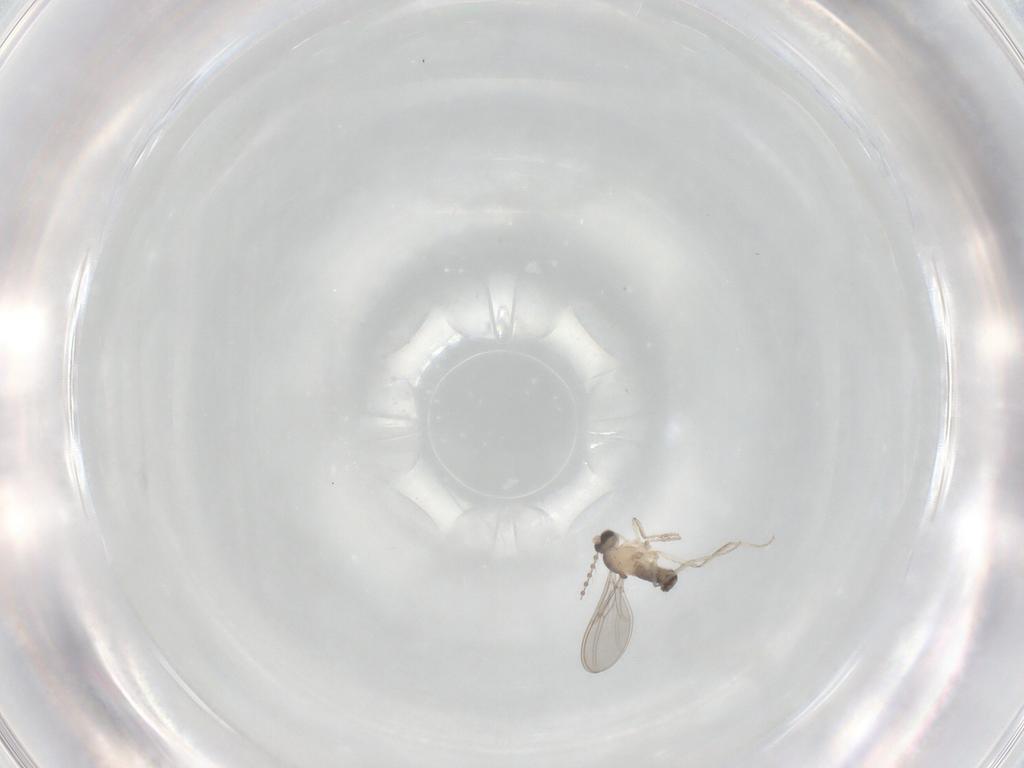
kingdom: Animalia
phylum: Arthropoda
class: Insecta
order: Diptera
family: Cecidomyiidae
